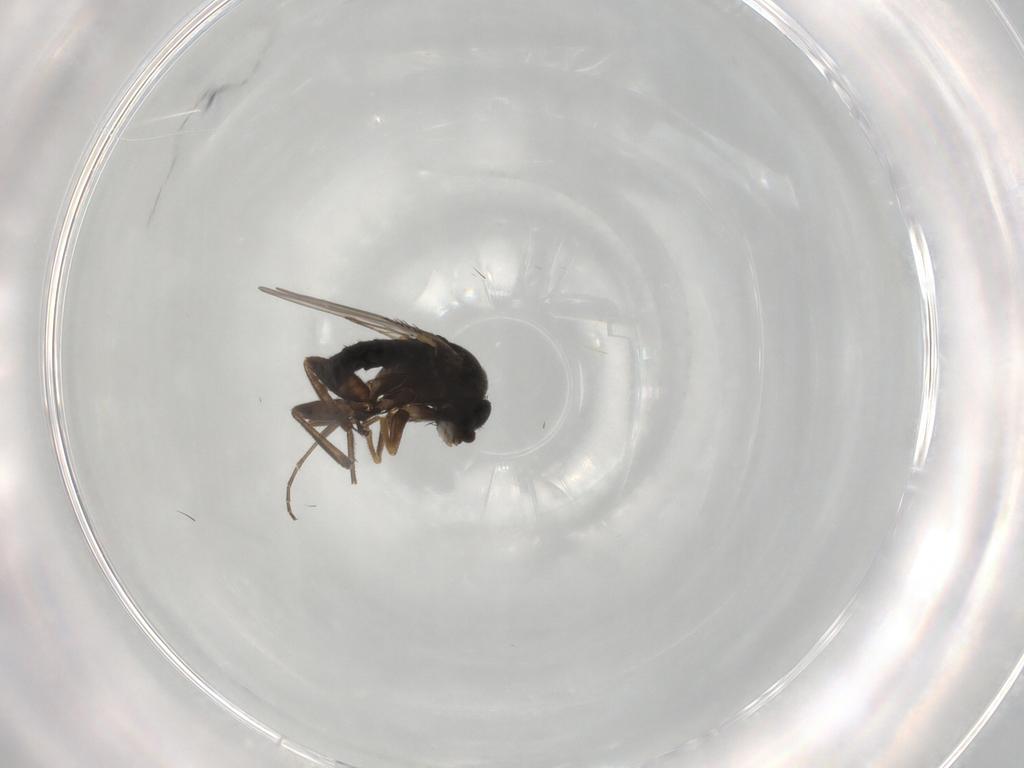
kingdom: Animalia
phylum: Arthropoda
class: Insecta
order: Diptera
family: Phoridae
